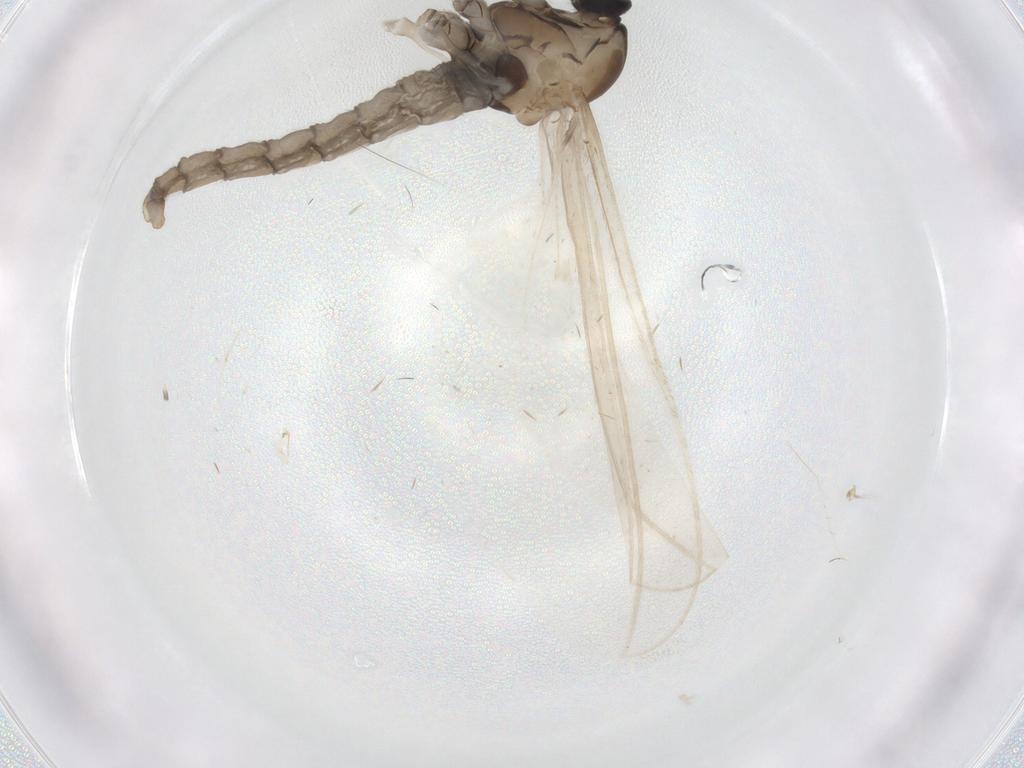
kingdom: Animalia
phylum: Arthropoda
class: Insecta
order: Diptera
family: Cecidomyiidae
